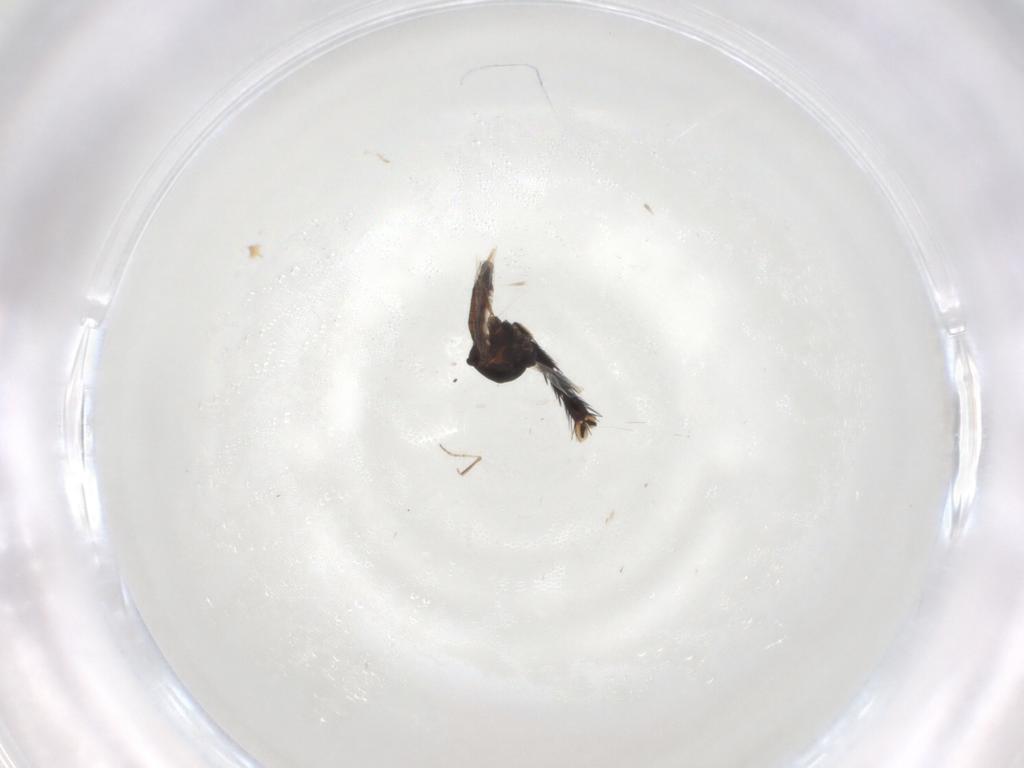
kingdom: Animalia
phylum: Arthropoda
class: Insecta
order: Diptera
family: Ceratopogonidae
